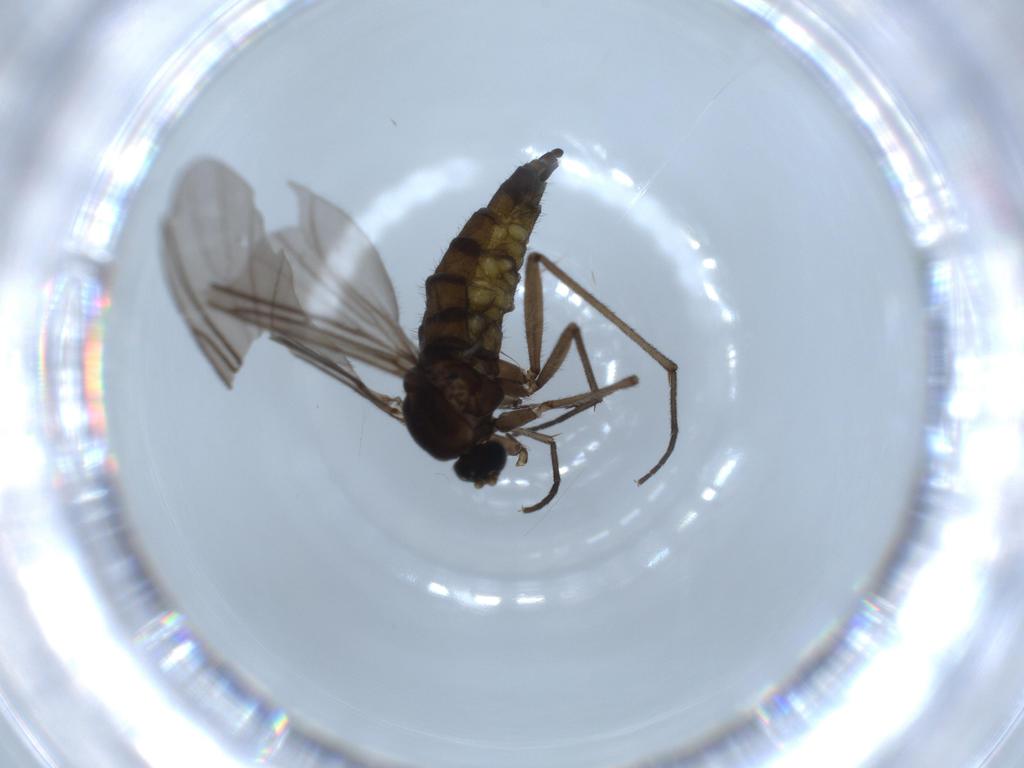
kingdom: Animalia
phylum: Arthropoda
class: Insecta
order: Diptera
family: Sciaridae
